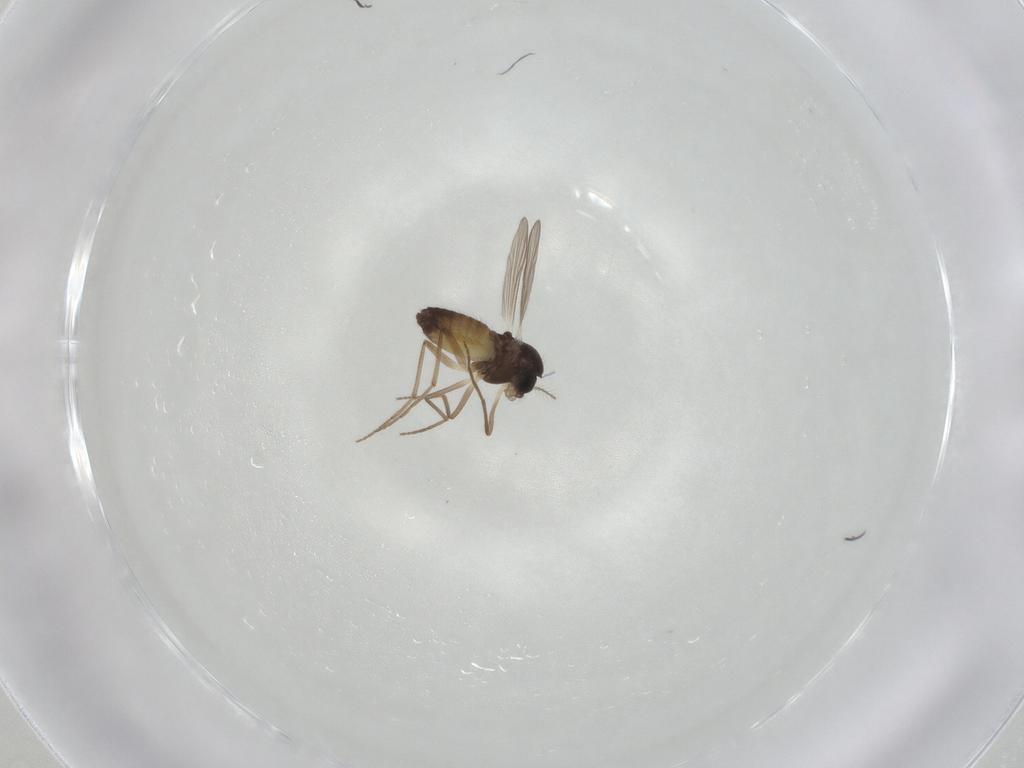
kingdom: Animalia
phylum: Arthropoda
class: Insecta
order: Diptera
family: Chironomidae
